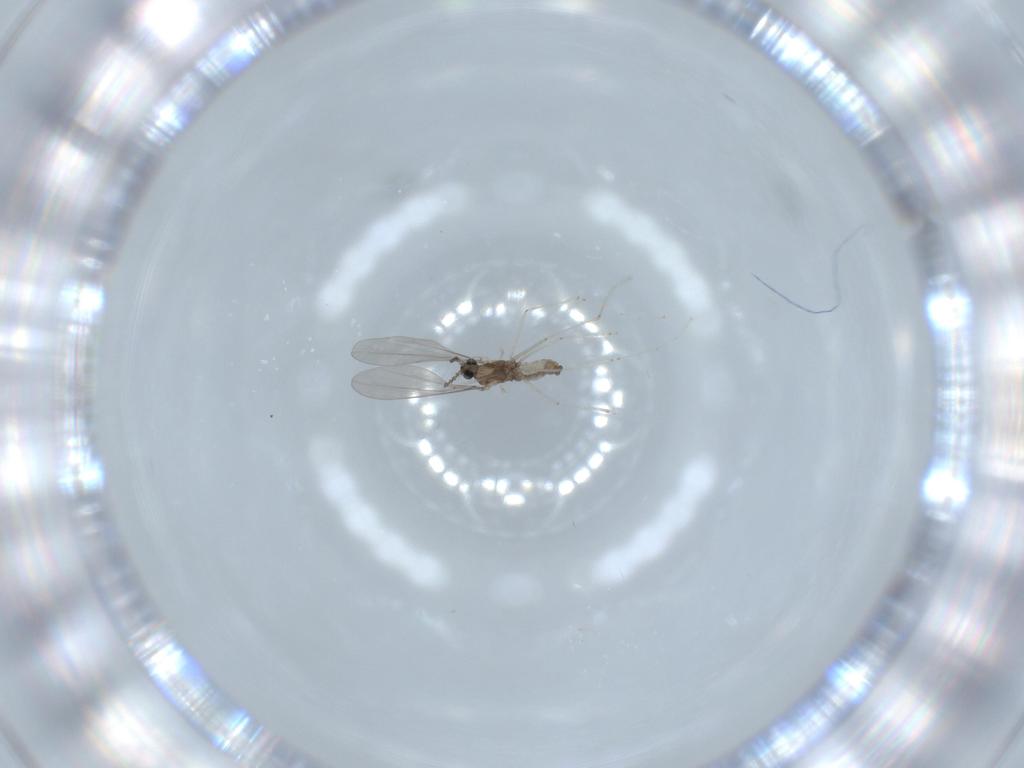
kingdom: Animalia
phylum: Arthropoda
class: Insecta
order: Diptera
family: Cecidomyiidae
